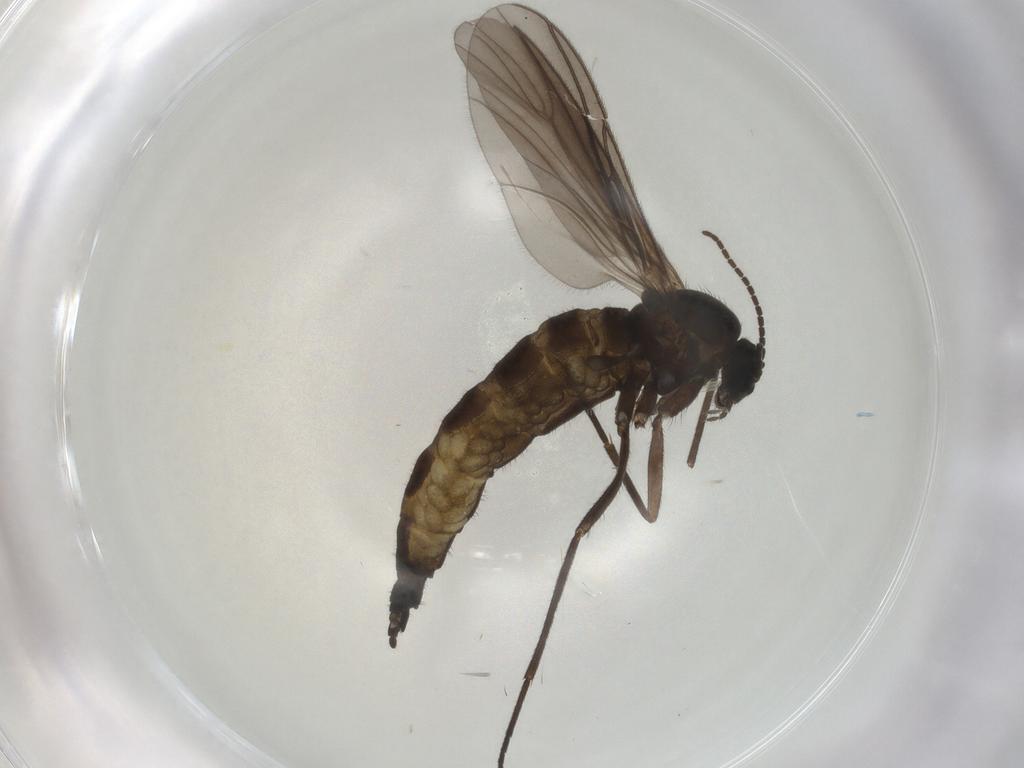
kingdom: Animalia
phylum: Arthropoda
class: Insecta
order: Diptera
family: Sciaridae
